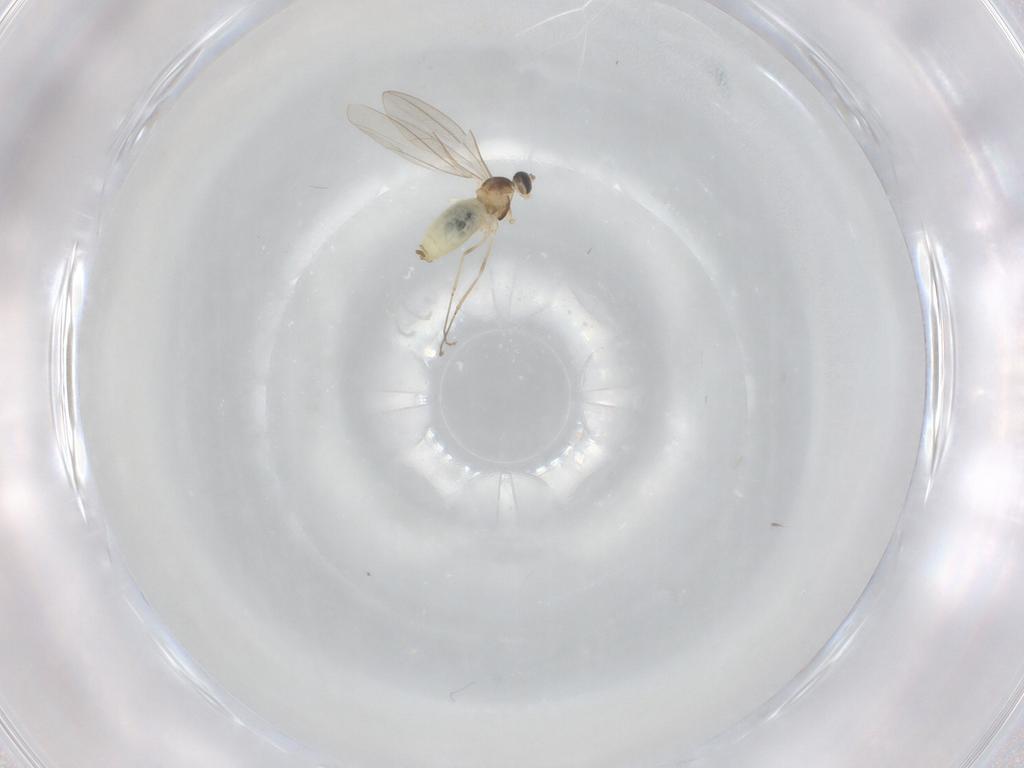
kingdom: Animalia
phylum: Arthropoda
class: Insecta
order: Diptera
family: Cecidomyiidae
